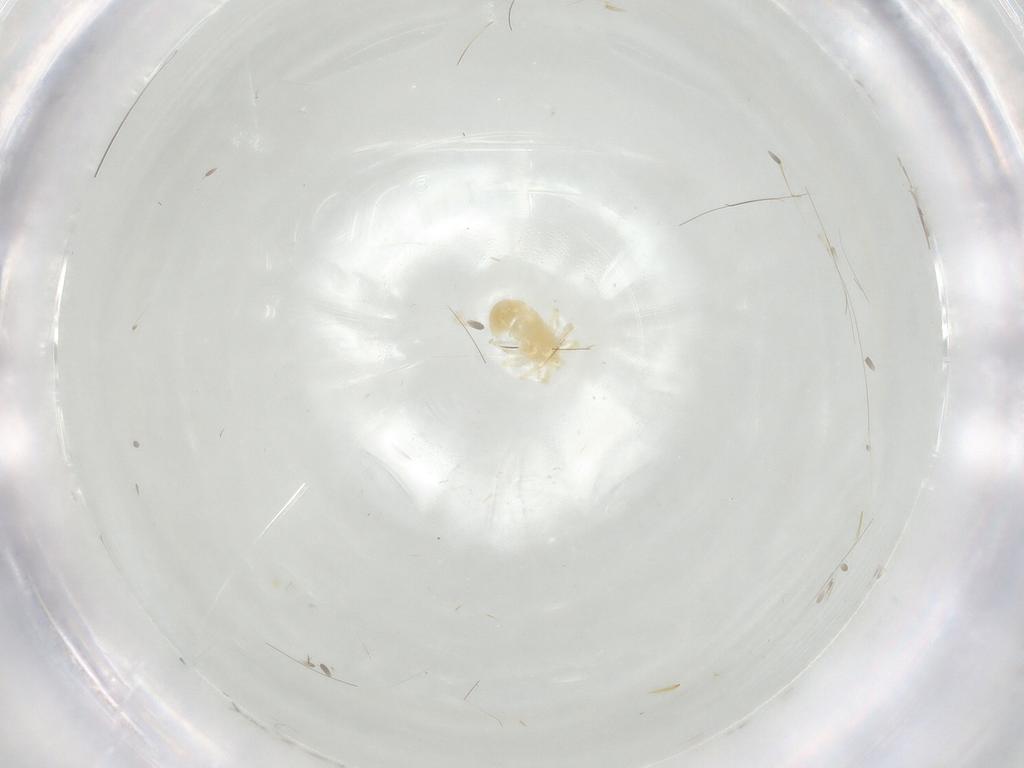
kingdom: Animalia
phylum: Arthropoda
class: Arachnida
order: Trombidiformes
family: Anystidae
